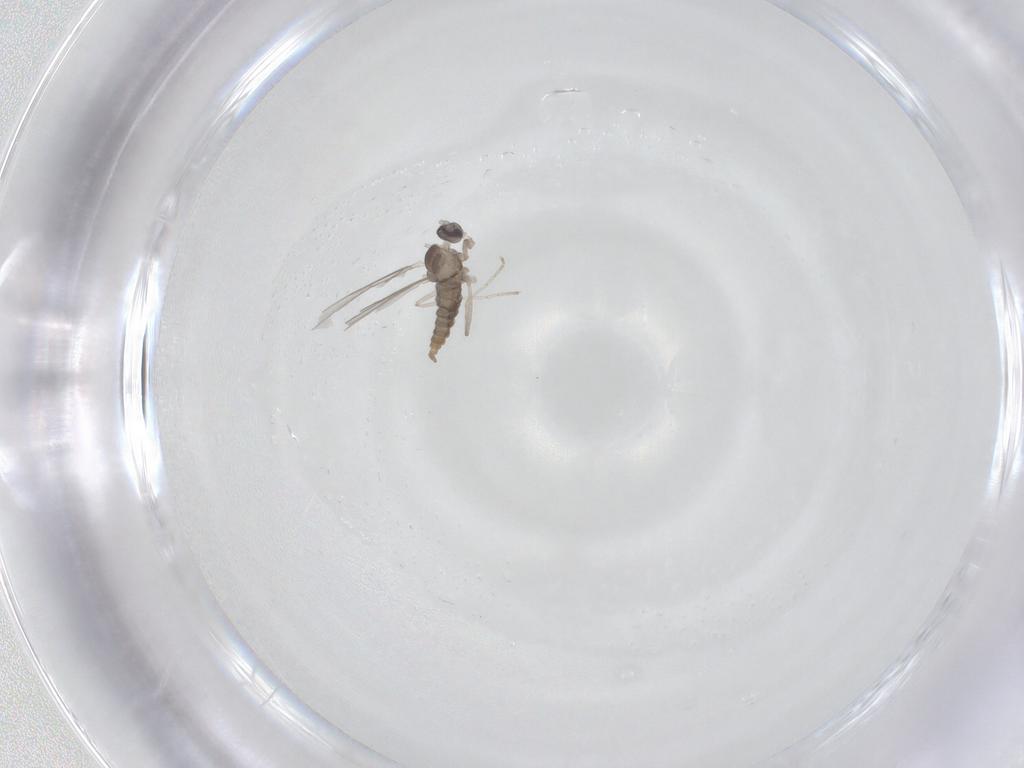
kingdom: Animalia
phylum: Arthropoda
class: Insecta
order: Diptera
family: Cecidomyiidae
